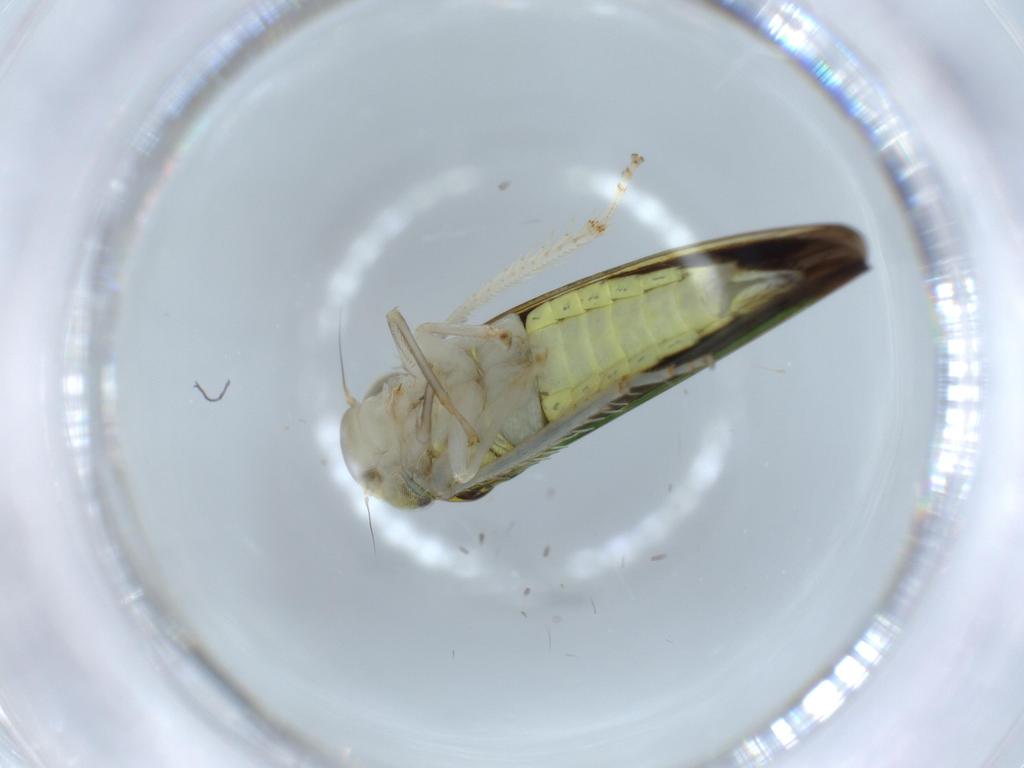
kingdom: Animalia
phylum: Arthropoda
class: Insecta
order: Hemiptera
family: Cicadellidae
